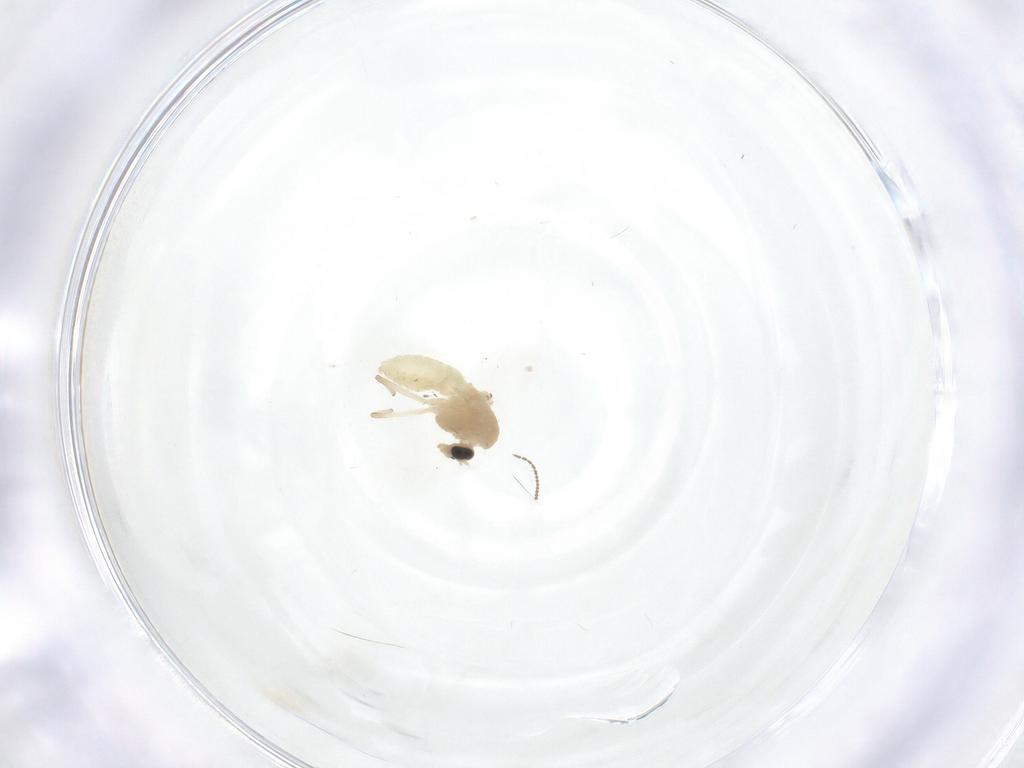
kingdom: Animalia
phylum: Arthropoda
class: Insecta
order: Diptera
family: Chironomidae
